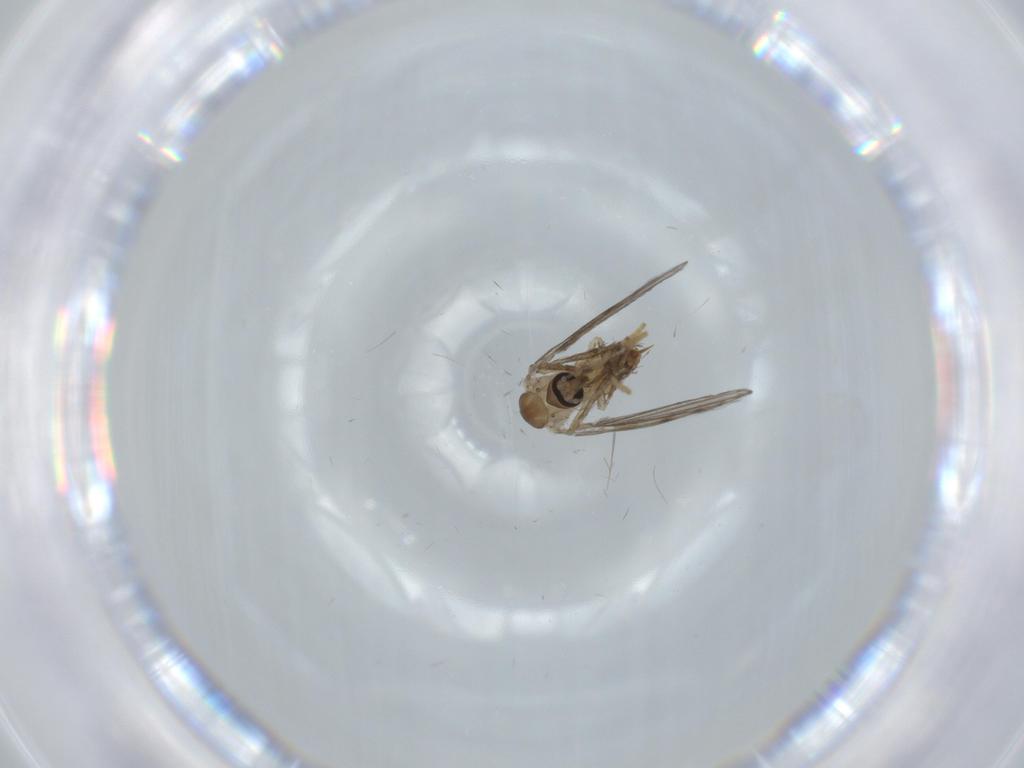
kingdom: Animalia
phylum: Arthropoda
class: Insecta
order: Diptera
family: Psychodidae
